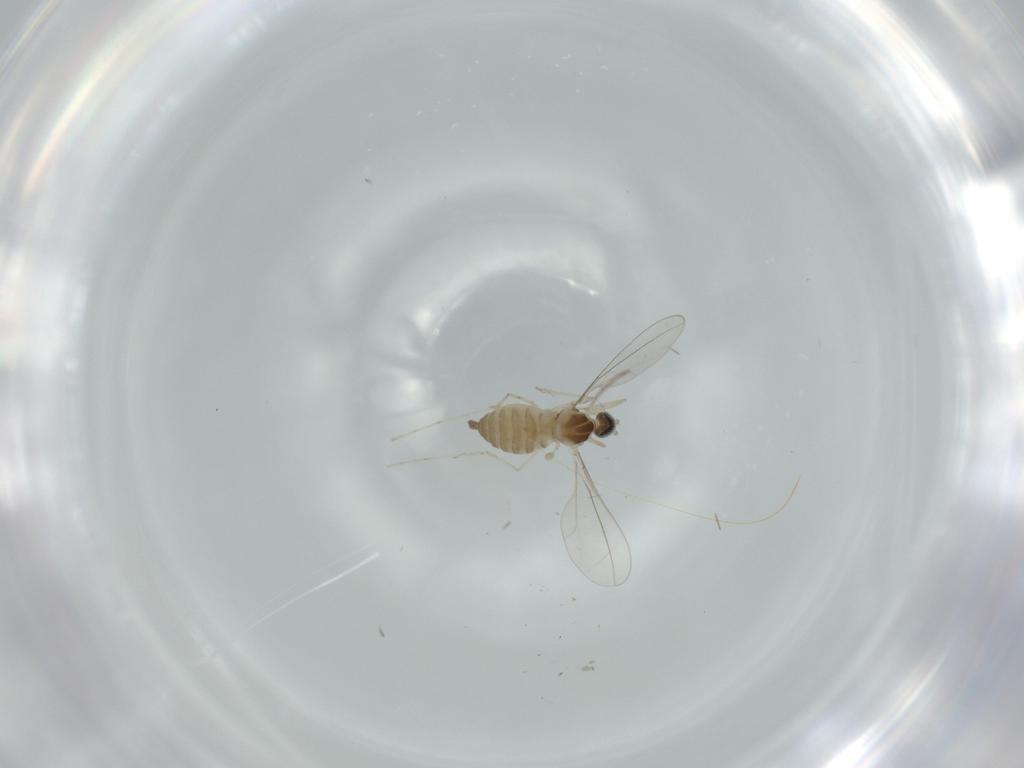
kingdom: Animalia
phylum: Arthropoda
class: Insecta
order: Diptera
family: Cecidomyiidae
